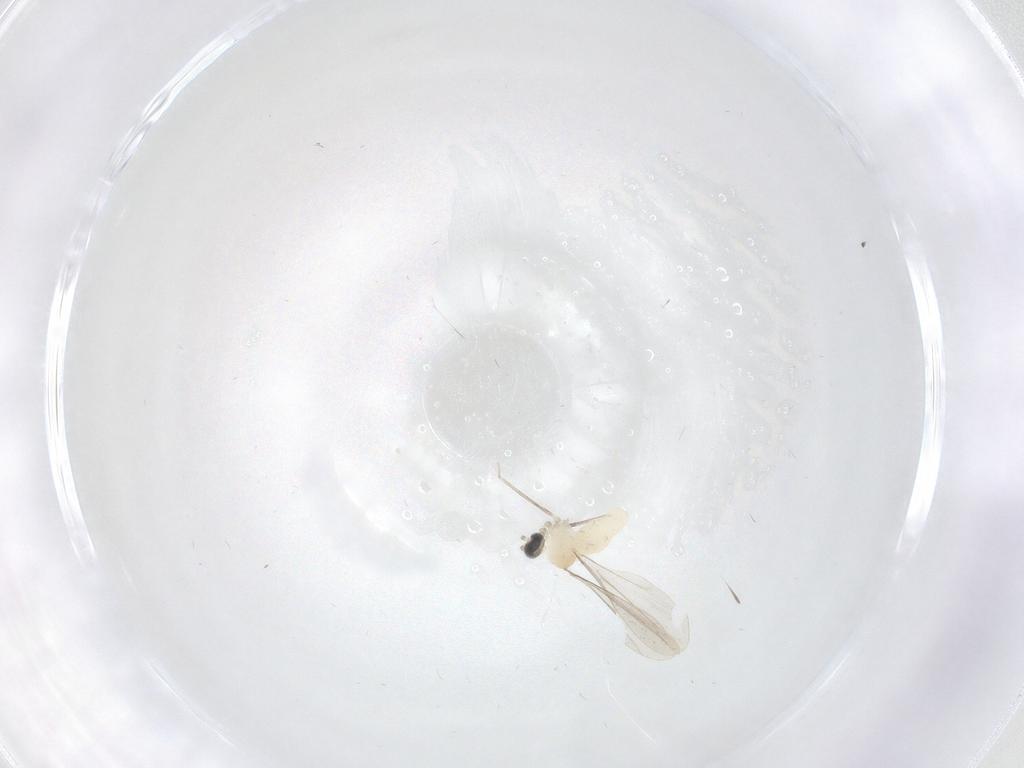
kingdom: Animalia
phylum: Arthropoda
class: Insecta
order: Diptera
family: Cecidomyiidae
